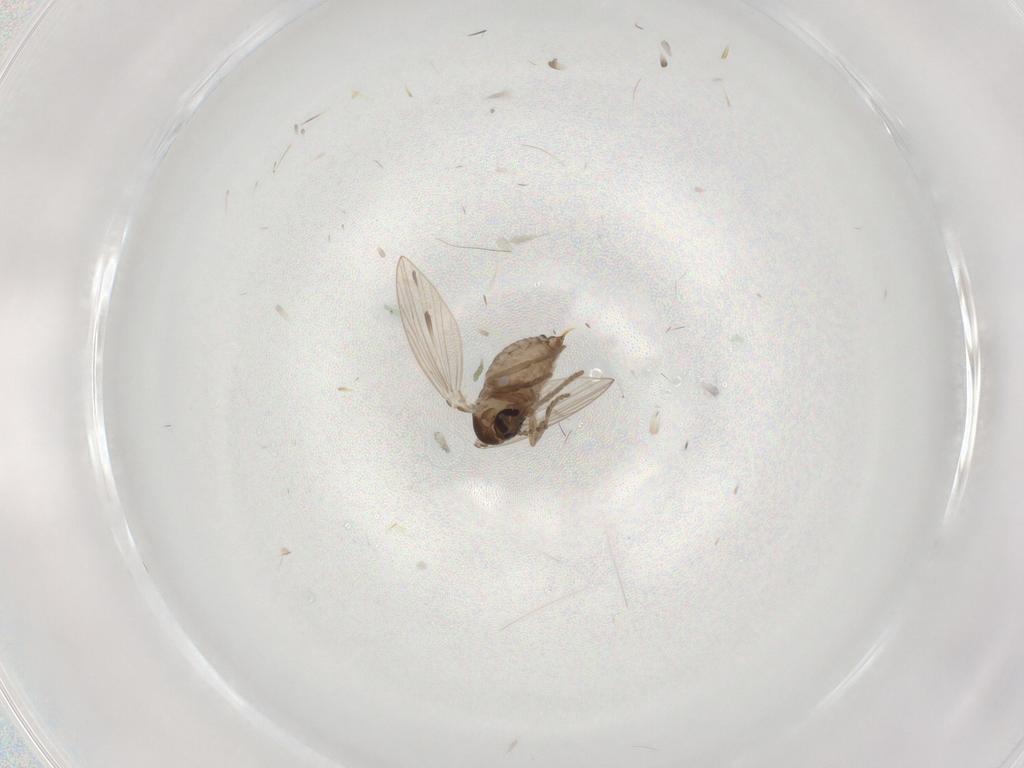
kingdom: Animalia
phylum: Arthropoda
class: Insecta
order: Diptera
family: Psychodidae
